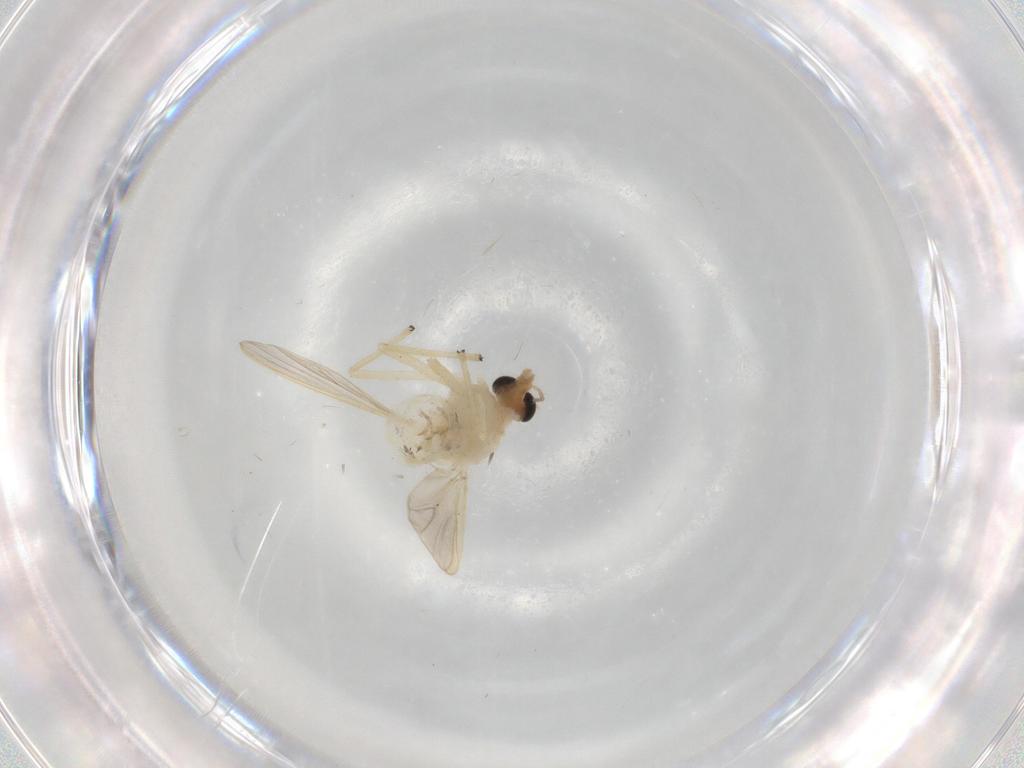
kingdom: Animalia
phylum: Arthropoda
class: Insecta
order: Diptera
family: Chironomidae
